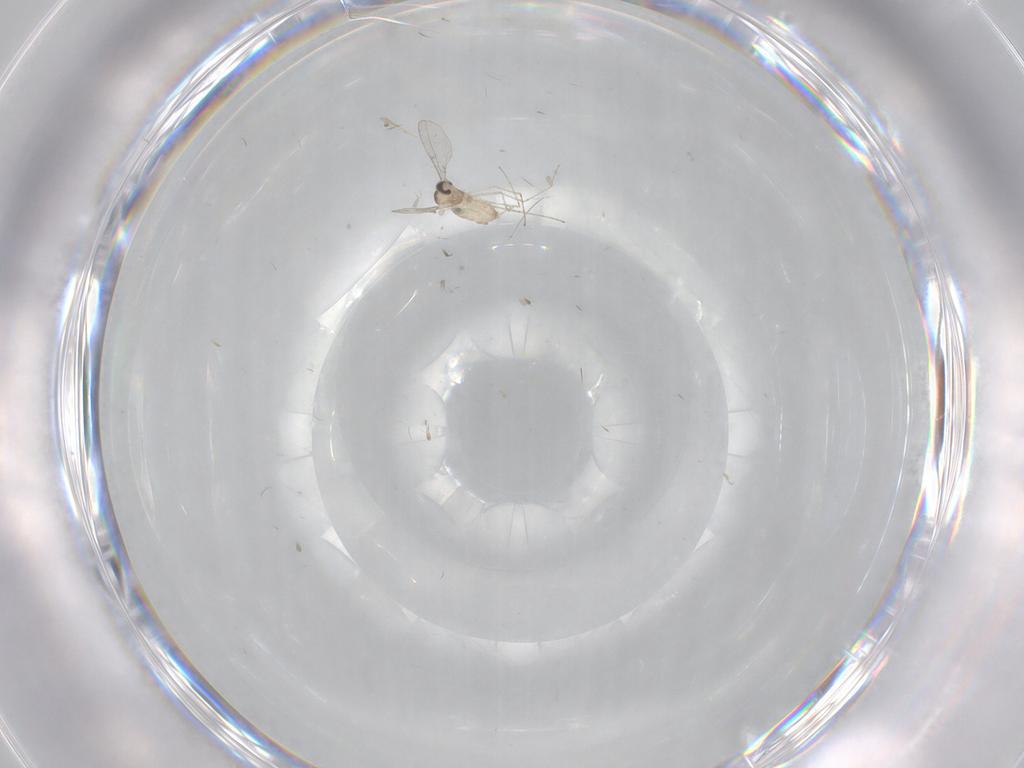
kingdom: Animalia
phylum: Arthropoda
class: Insecta
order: Diptera
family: Cecidomyiidae
